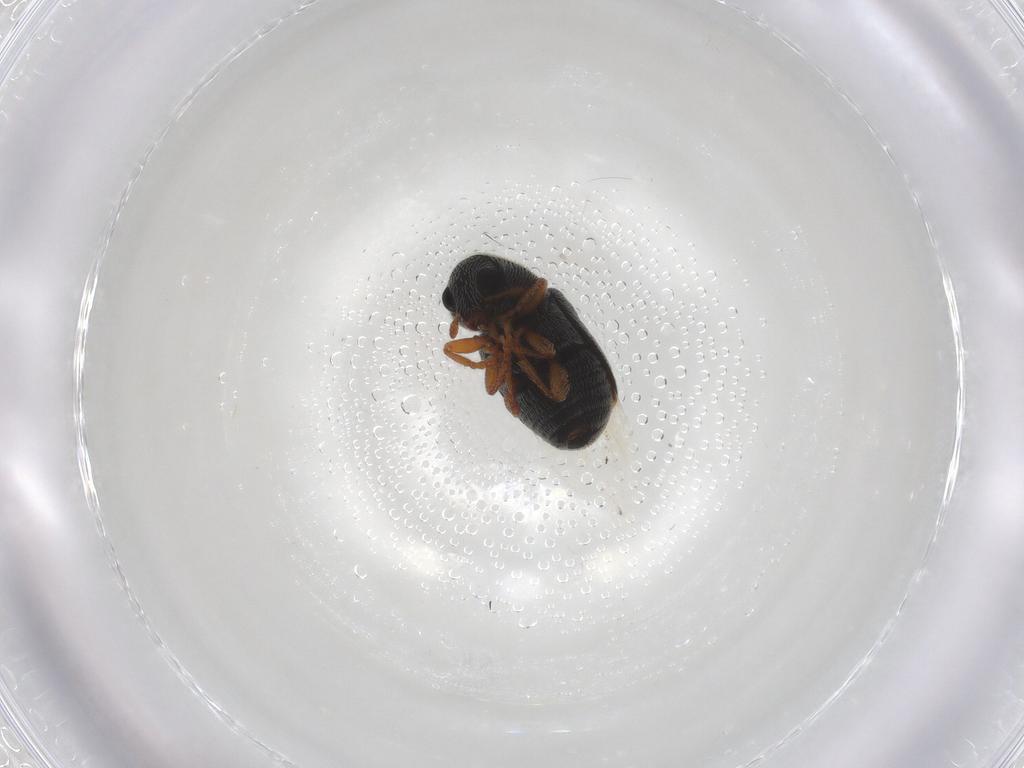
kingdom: Animalia
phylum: Arthropoda
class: Insecta
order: Coleoptera
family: Anthribidae
